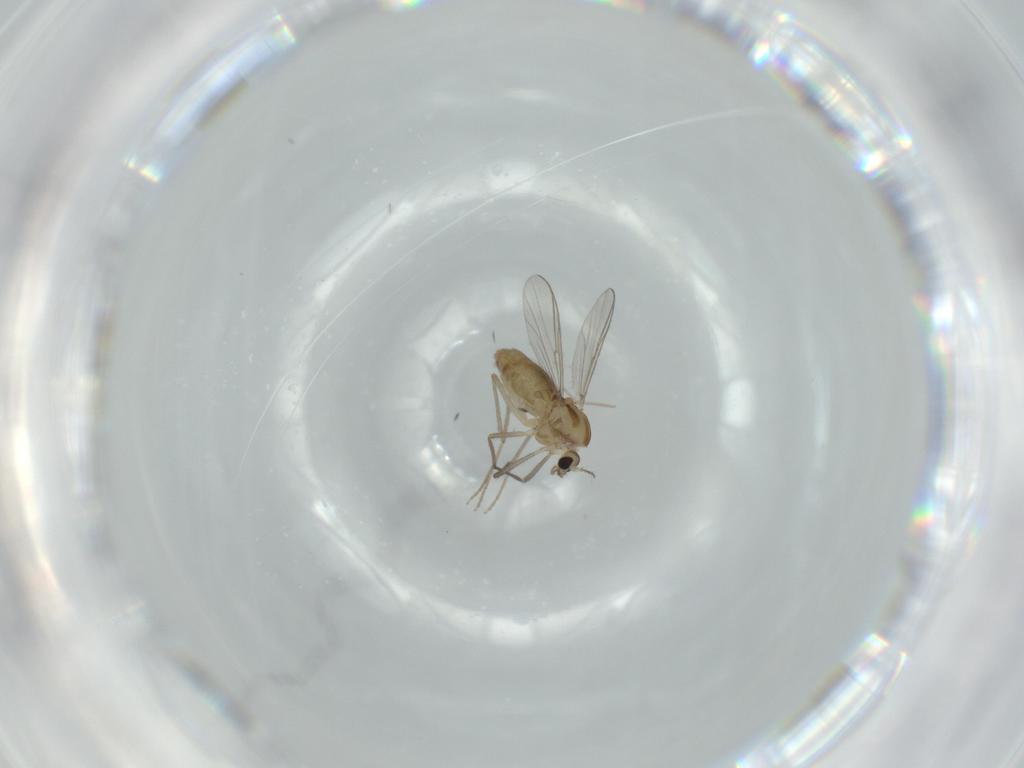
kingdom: Animalia
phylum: Arthropoda
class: Insecta
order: Diptera
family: Chironomidae
